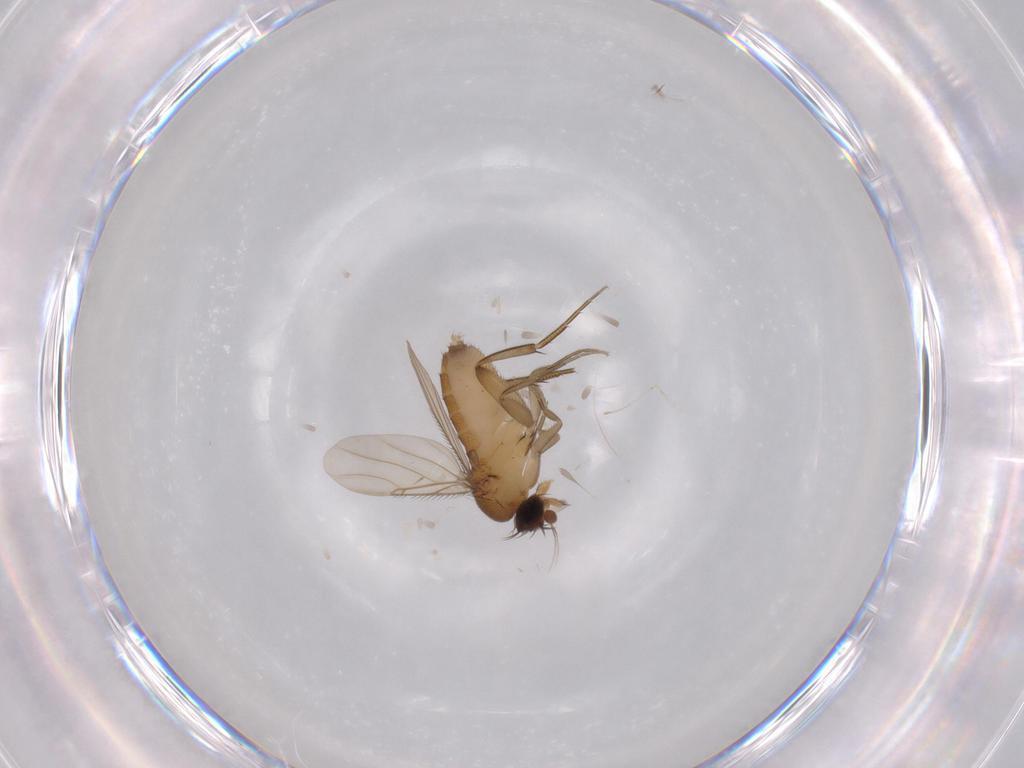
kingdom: Animalia
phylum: Arthropoda
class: Insecta
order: Diptera
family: Phoridae
